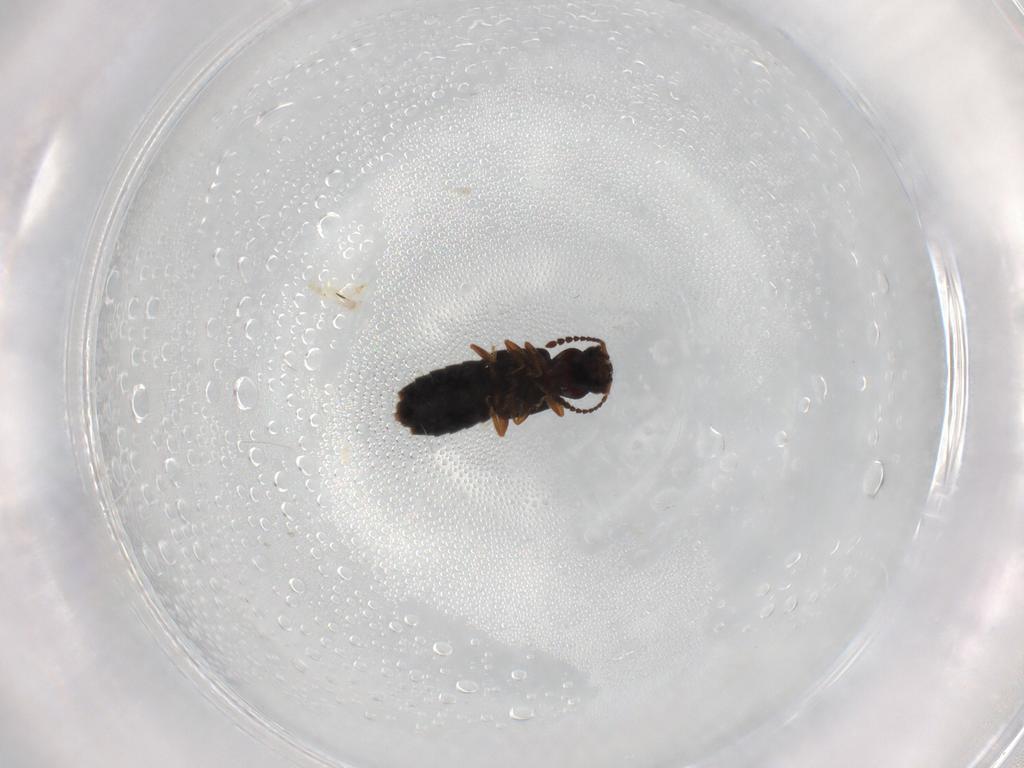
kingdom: Animalia
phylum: Arthropoda
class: Insecta
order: Coleoptera
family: Staphylinidae
